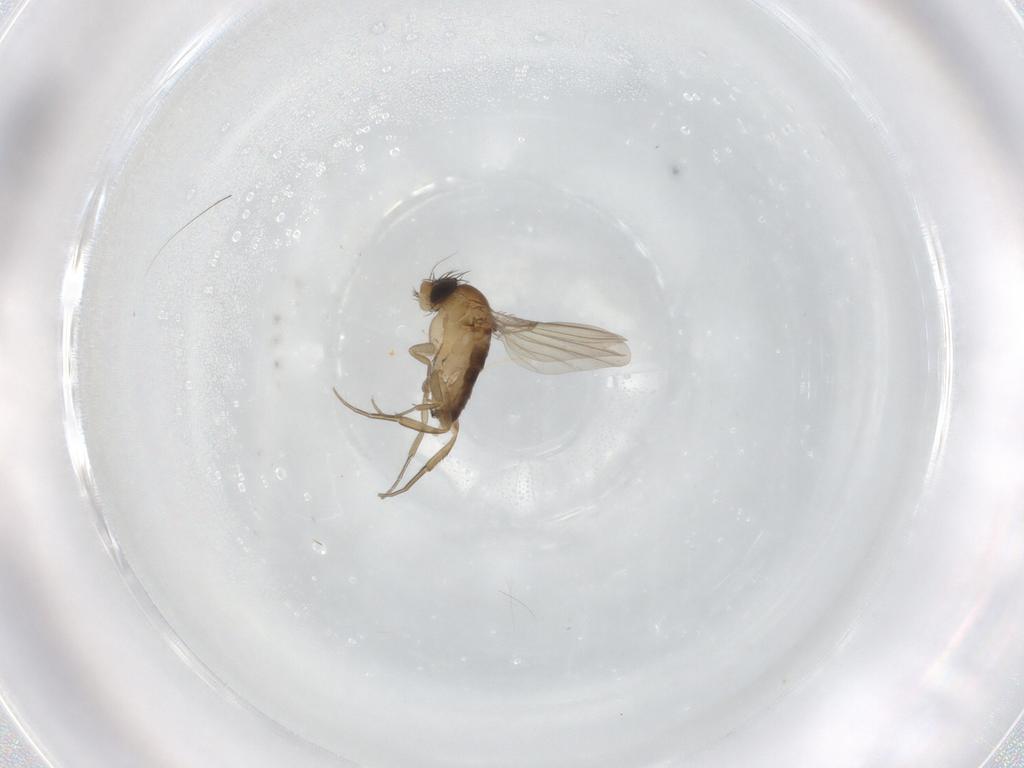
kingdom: Animalia
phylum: Arthropoda
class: Insecta
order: Diptera
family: Phoridae
